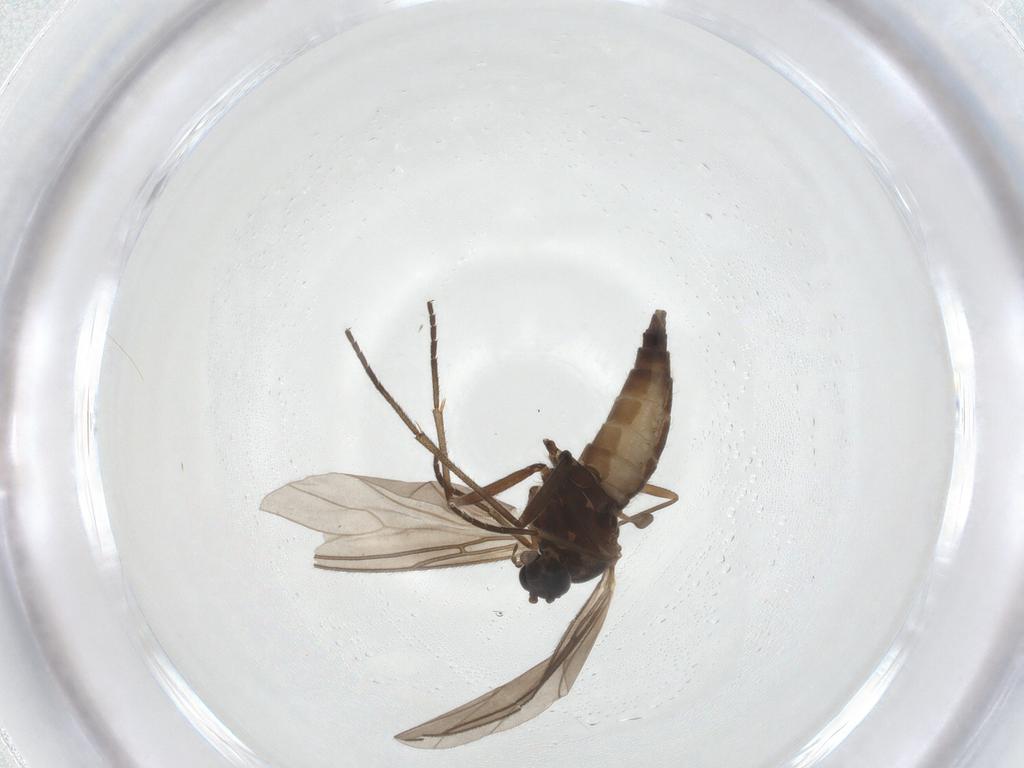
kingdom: Animalia
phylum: Arthropoda
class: Insecta
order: Diptera
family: Sciaridae
